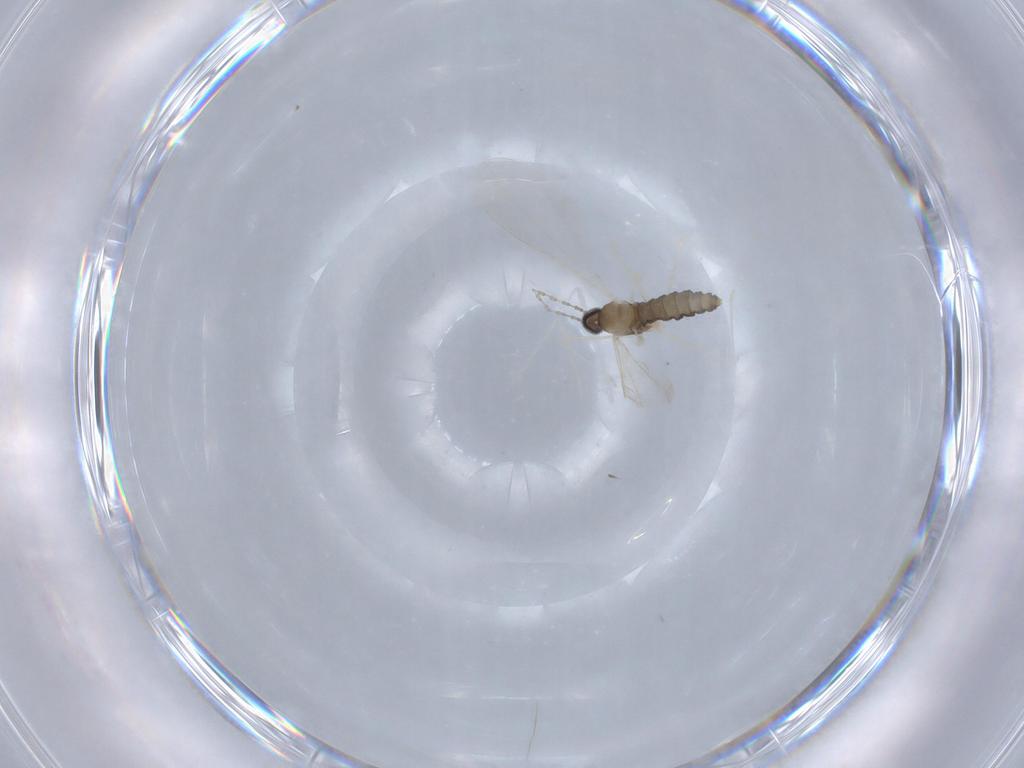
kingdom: Animalia
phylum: Arthropoda
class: Insecta
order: Diptera
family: Cecidomyiidae
